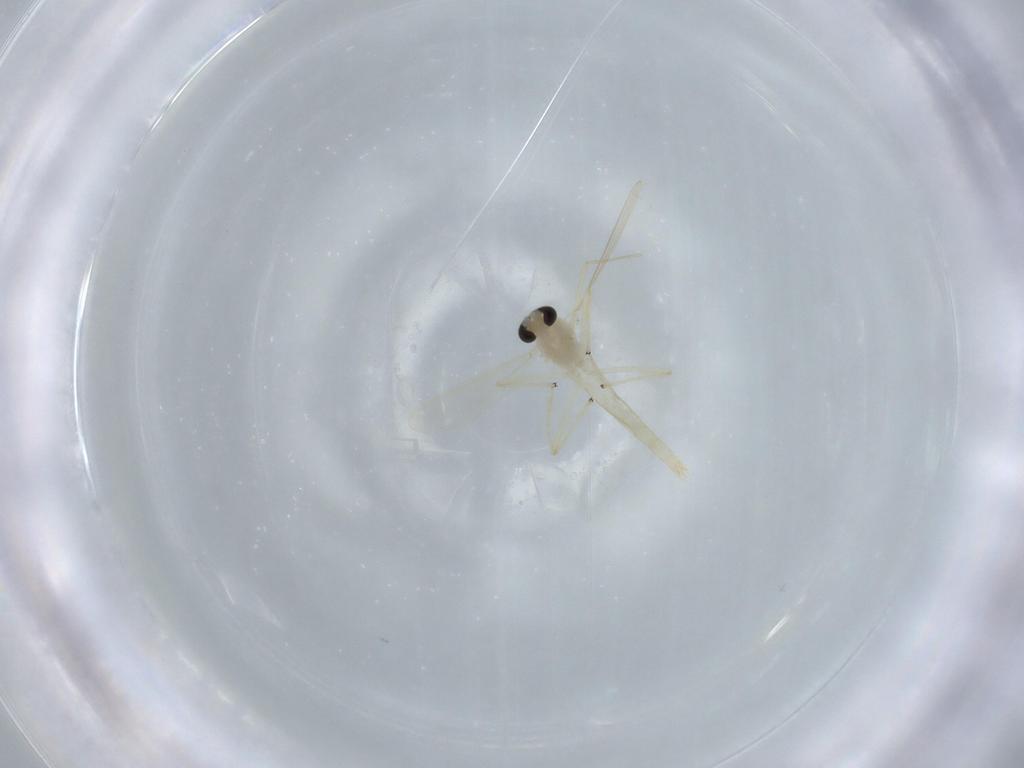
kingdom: Animalia
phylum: Arthropoda
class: Insecta
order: Diptera
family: Chironomidae
